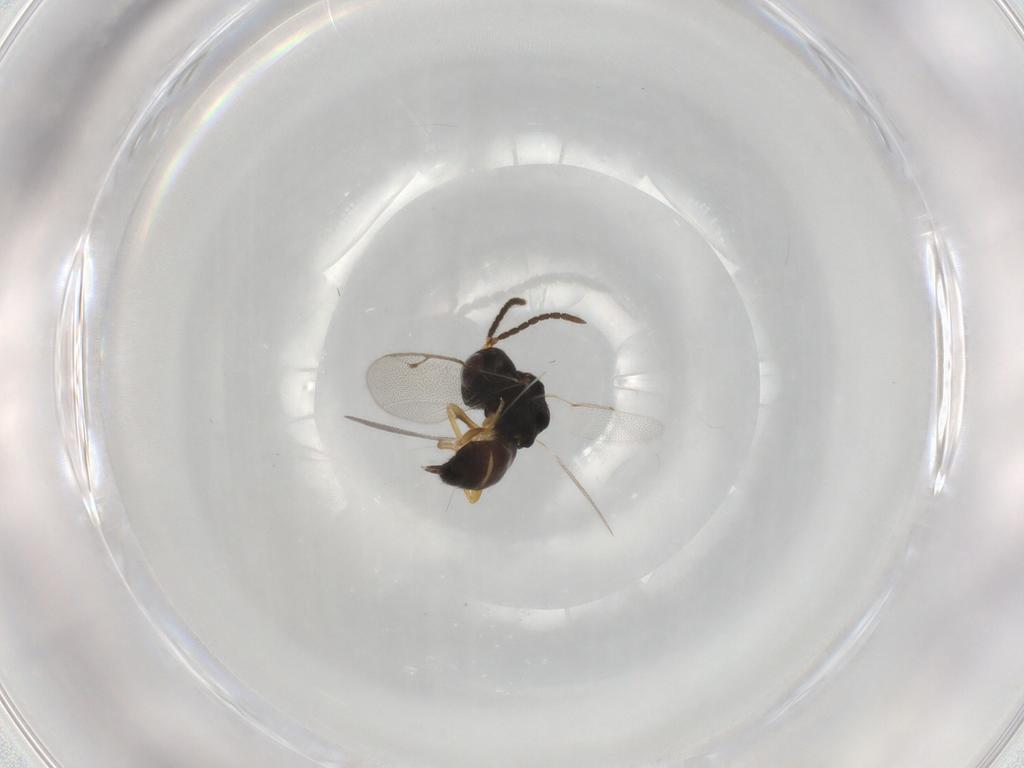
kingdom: Animalia
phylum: Arthropoda
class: Insecta
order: Hymenoptera
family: Pteromalidae
